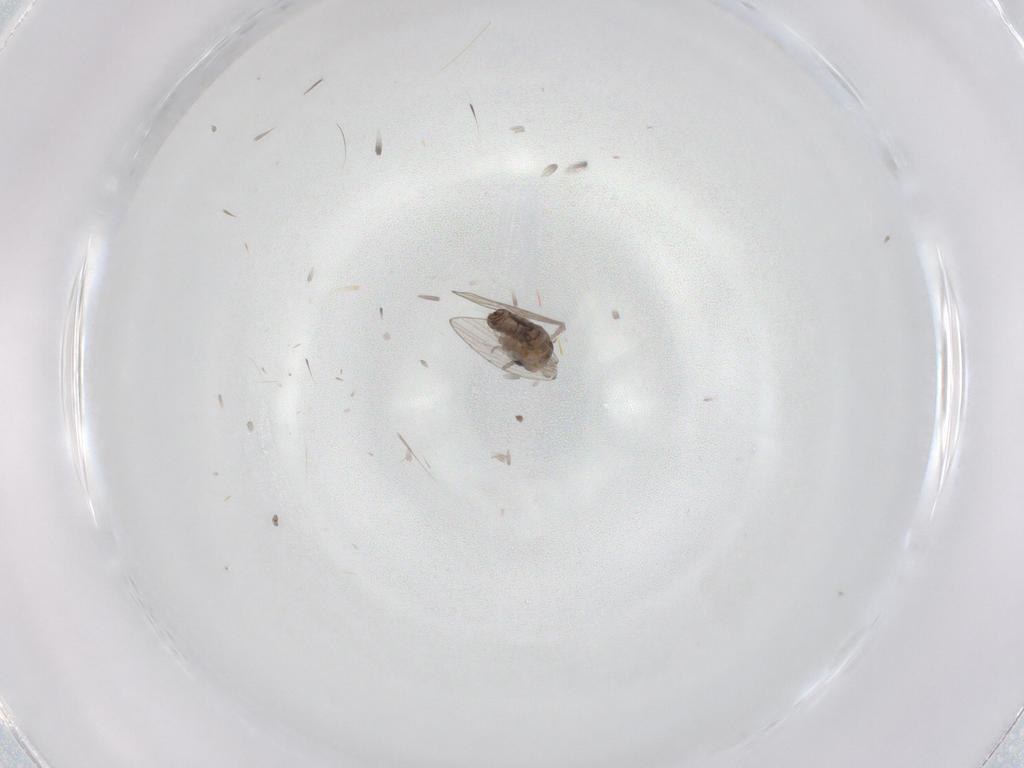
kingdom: Animalia
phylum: Arthropoda
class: Insecta
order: Diptera
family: Psychodidae
